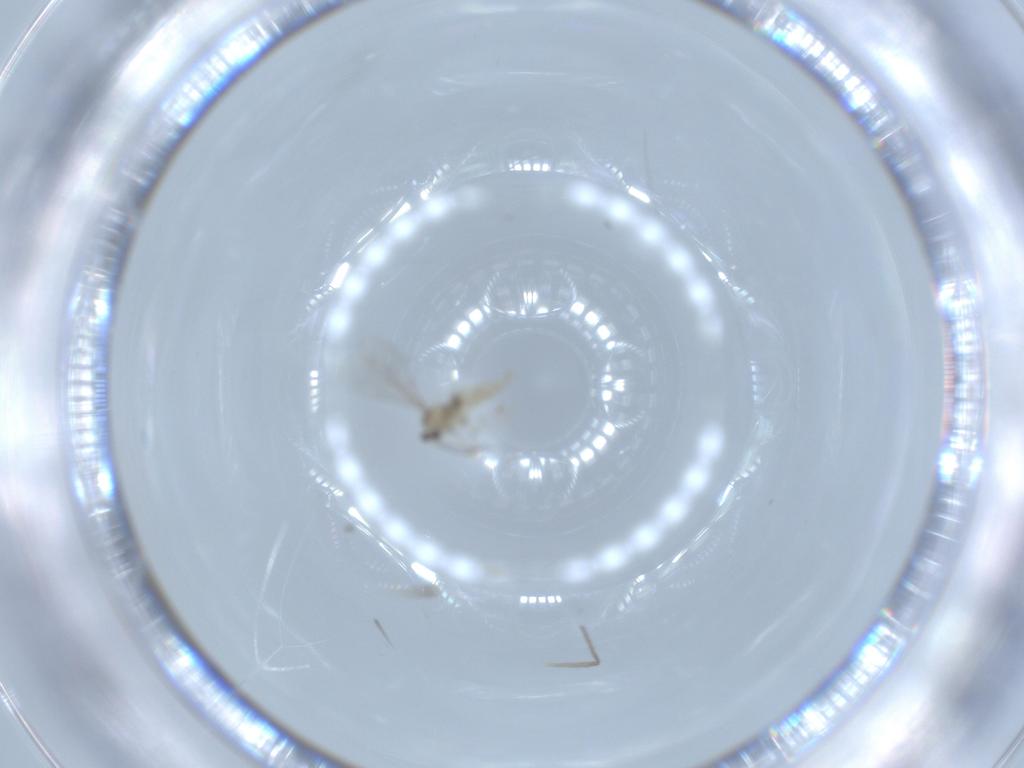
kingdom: Animalia
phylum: Arthropoda
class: Insecta
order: Diptera
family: Cecidomyiidae
